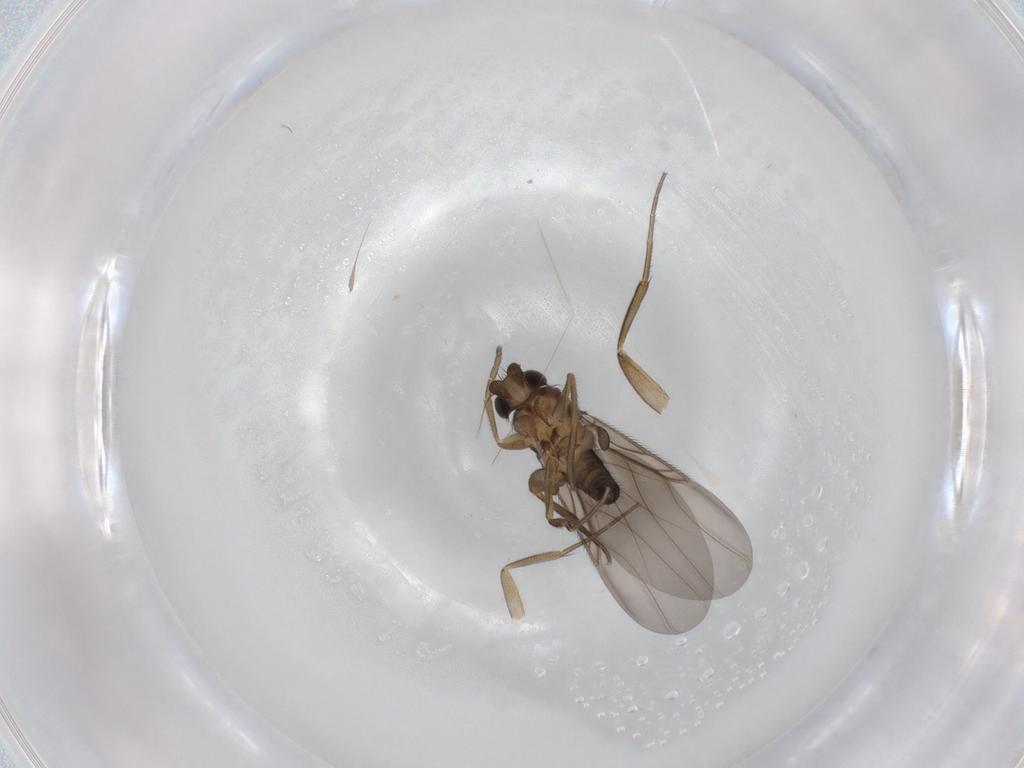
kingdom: Animalia
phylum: Arthropoda
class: Insecta
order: Diptera
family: Phoridae
